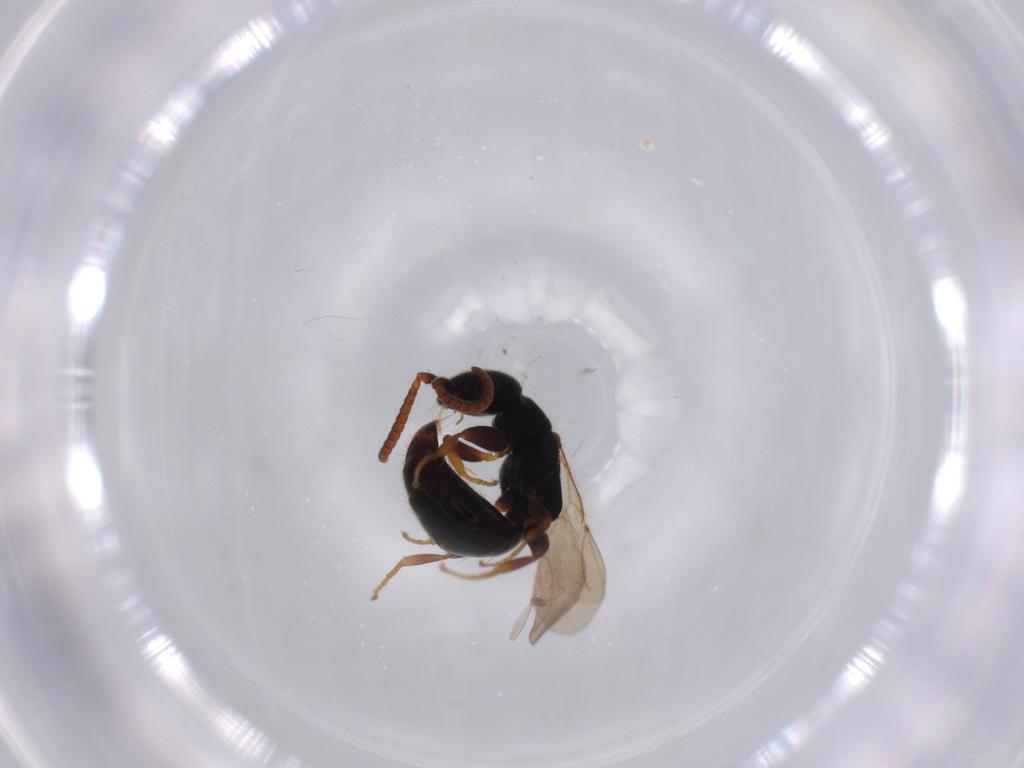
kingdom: Animalia
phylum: Arthropoda
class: Insecta
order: Hymenoptera
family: Bethylidae
